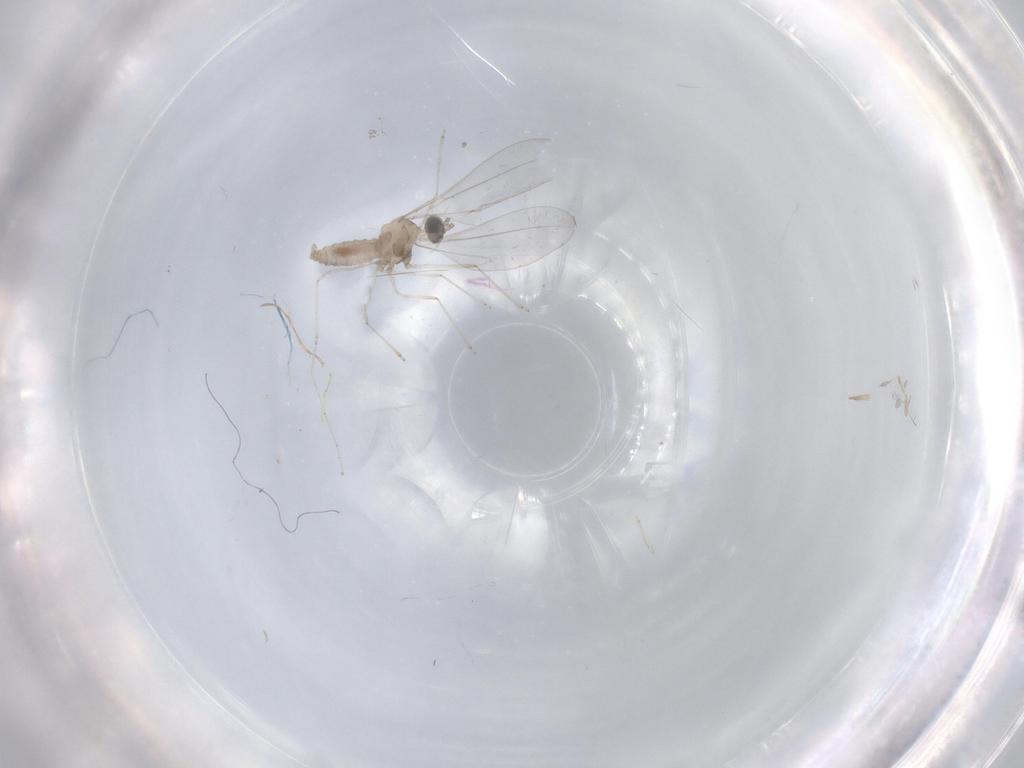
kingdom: Animalia
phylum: Arthropoda
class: Insecta
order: Diptera
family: Cecidomyiidae
